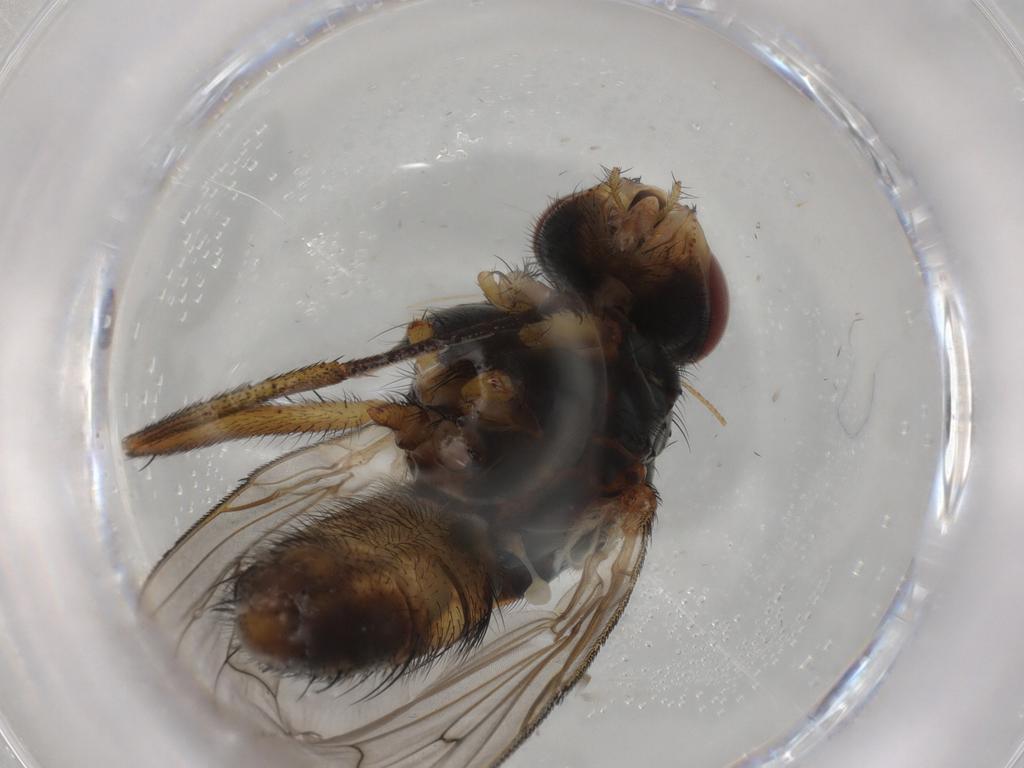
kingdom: Animalia
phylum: Arthropoda
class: Insecta
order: Diptera
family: Anthomyiidae
